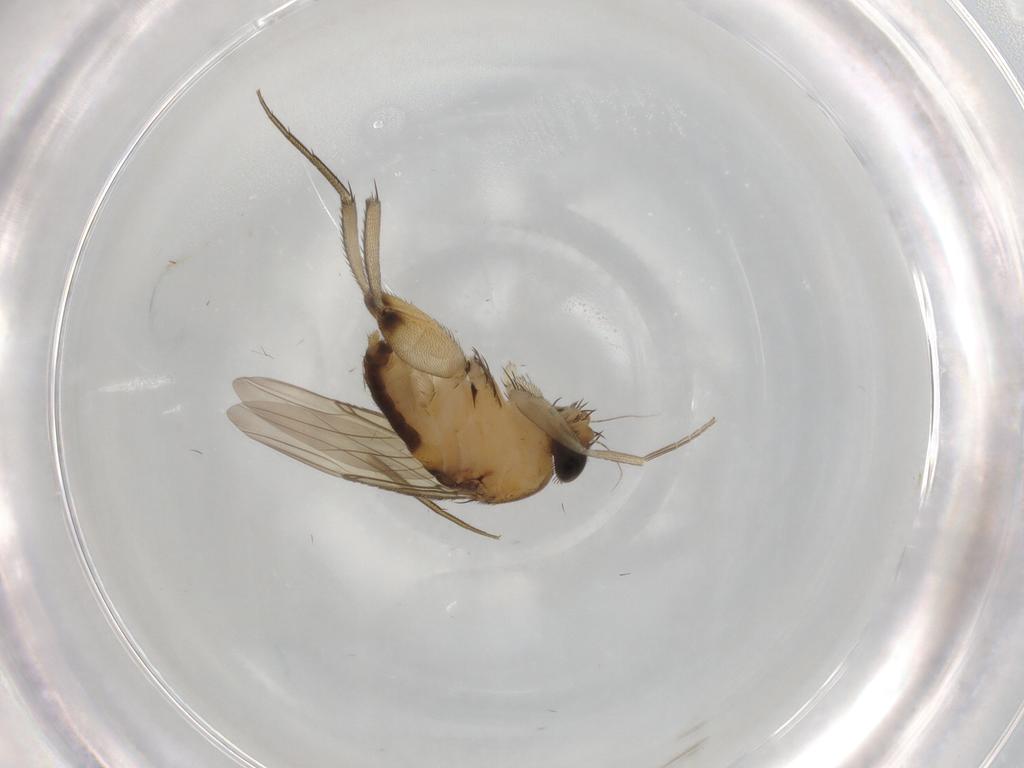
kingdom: Animalia
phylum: Arthropoda
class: Insecta
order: Diptera
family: Phoridae
